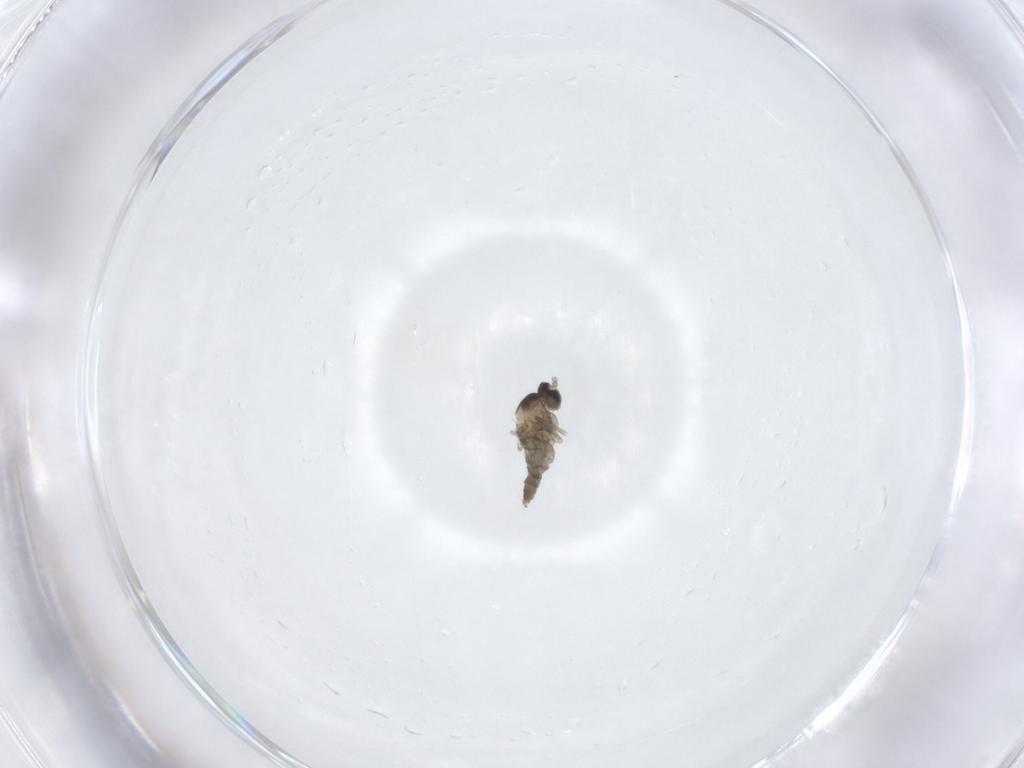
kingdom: Animalia
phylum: Arthropoda
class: Insecta
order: Diptera
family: Cecidomyiidae
